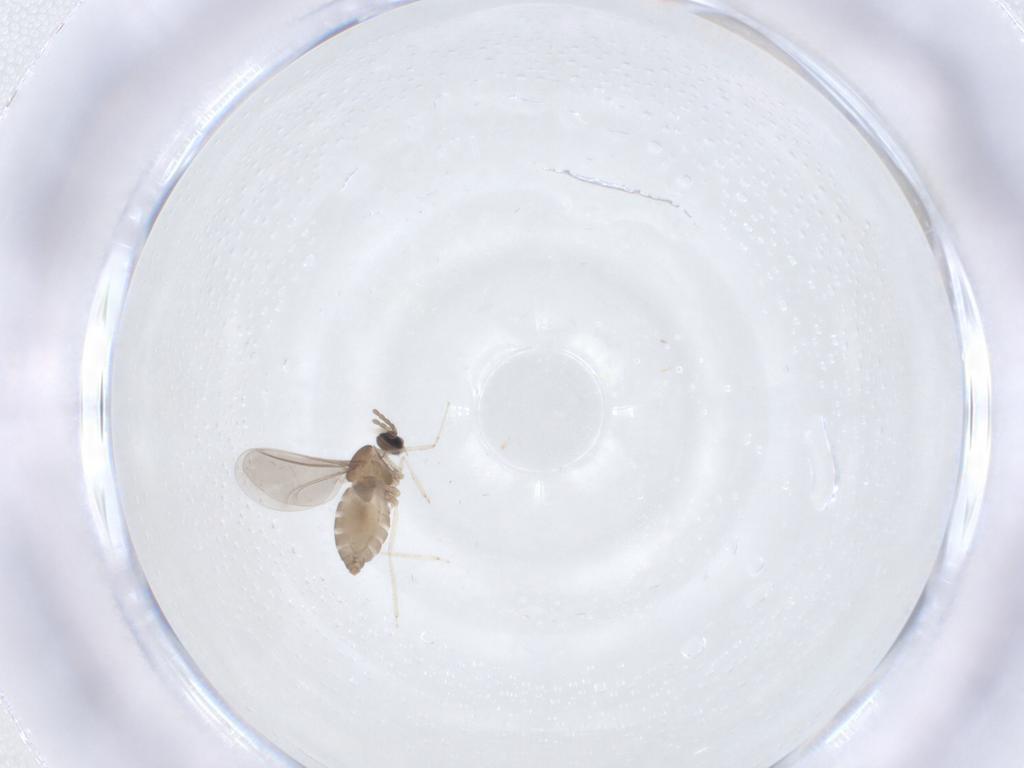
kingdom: Animalia
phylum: Arthropoda
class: Insecta
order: Diptera
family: Cecidomyiidae
